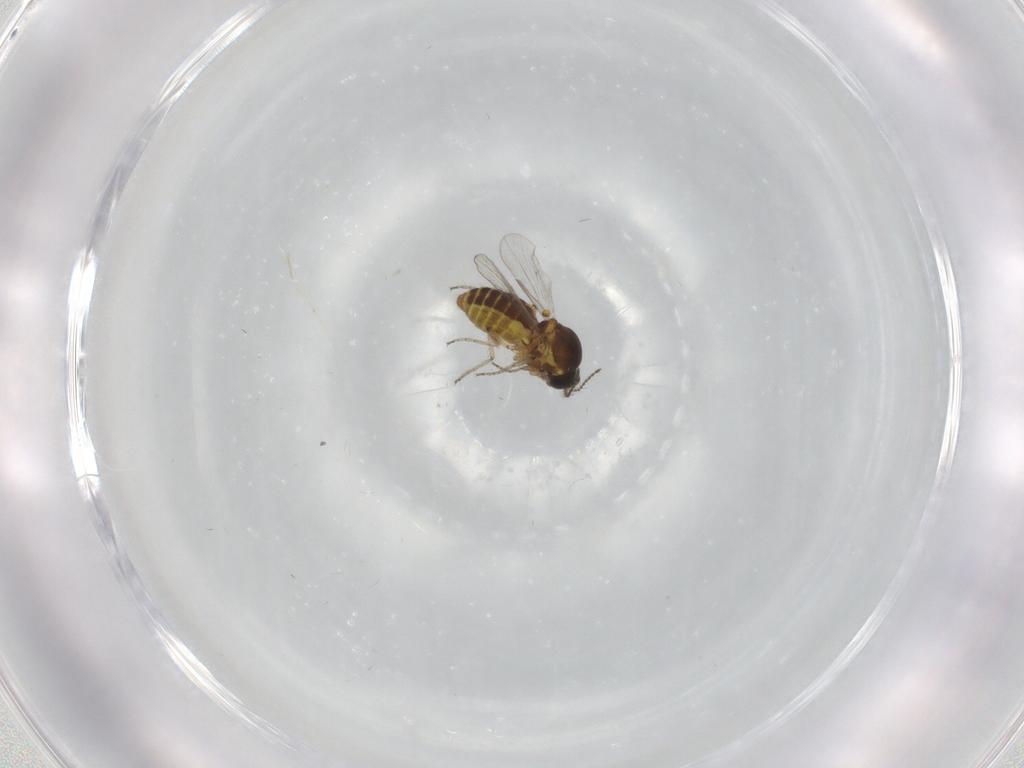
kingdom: Animalia
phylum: Arthropoda
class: Insecta
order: Diptera
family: Ceratopogonidae
